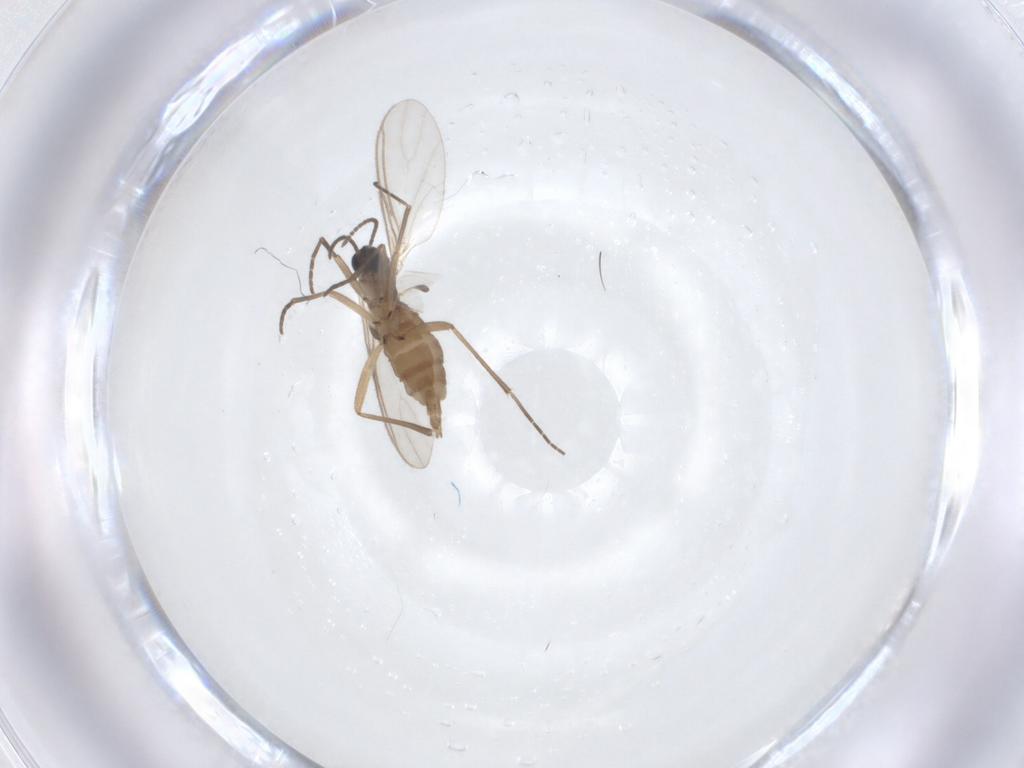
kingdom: Animalia
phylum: Arthropoda
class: Insecta
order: Diptera
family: Sciaridae
